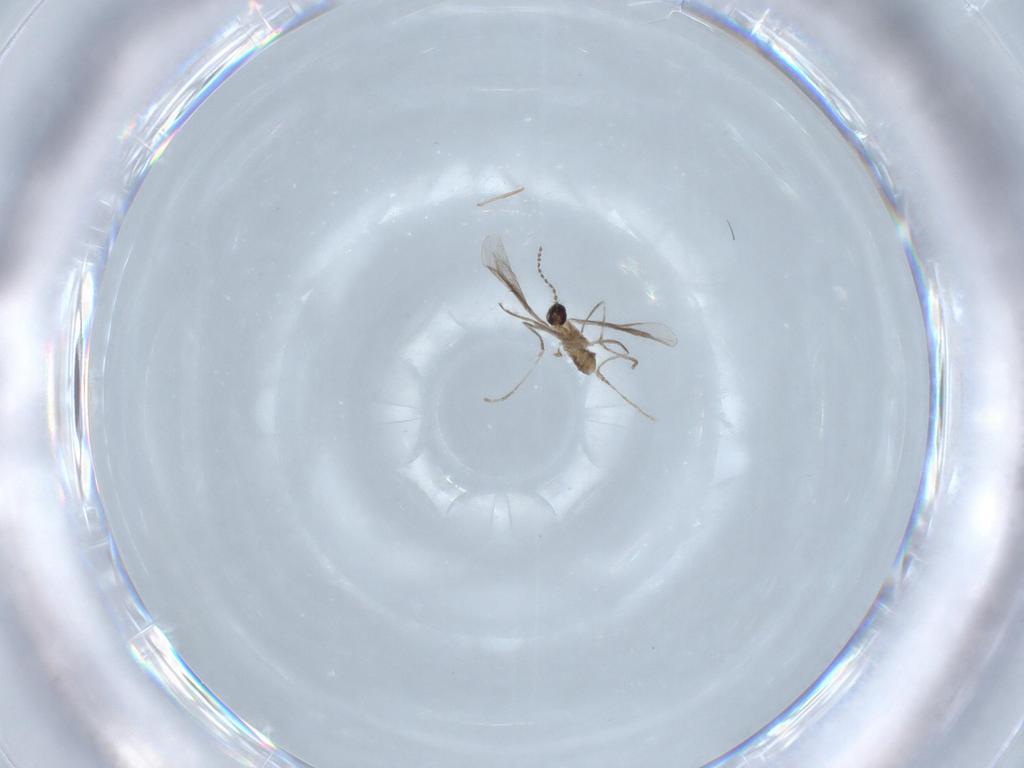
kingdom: Animalia
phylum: Arthropoda
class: Insecta
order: Diptera
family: Cecidomyiidae
